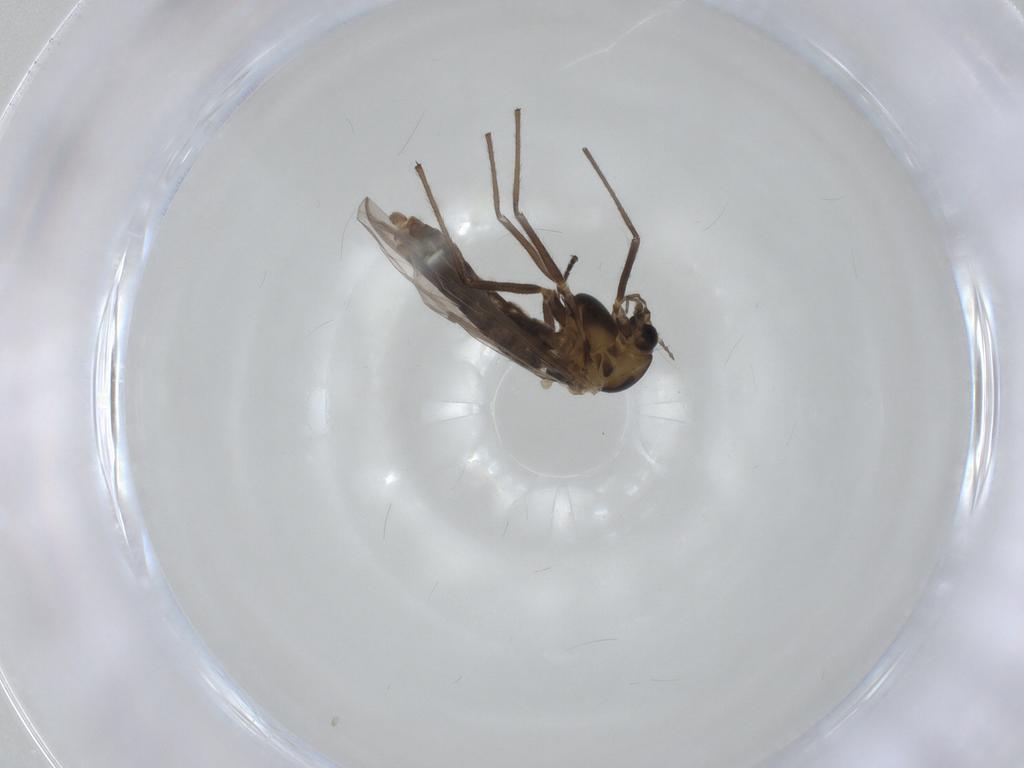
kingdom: Animalia
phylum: Arthropoda
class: Insecta
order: Diptera
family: Chironomidae
